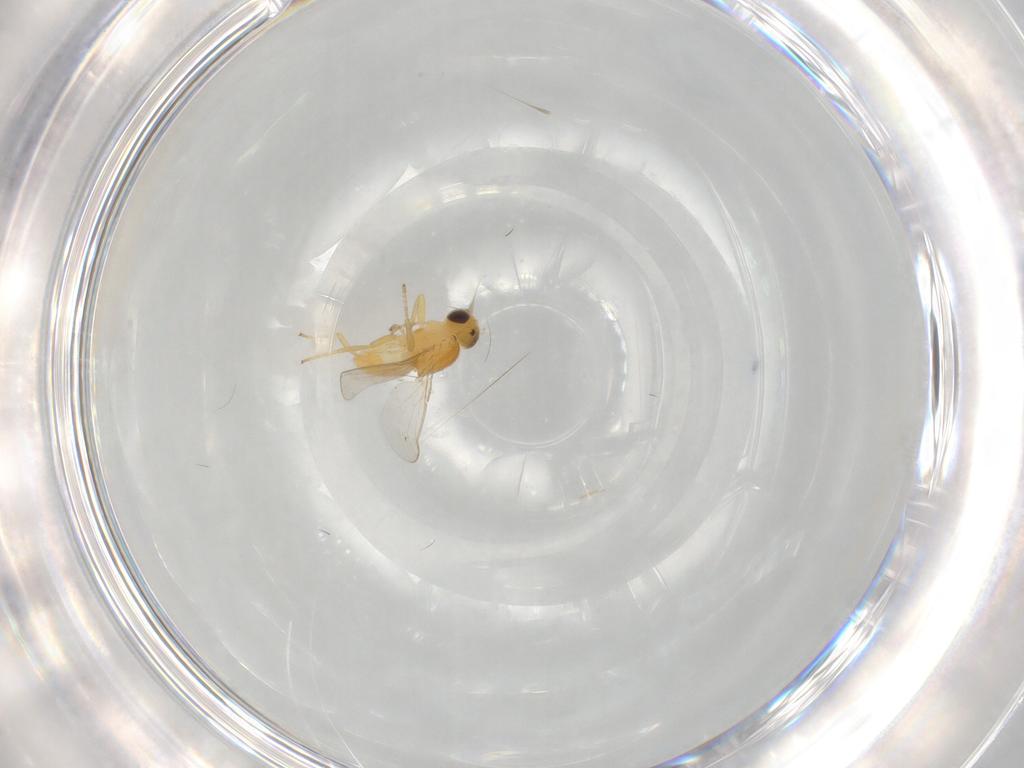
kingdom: Animalia
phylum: Arthropoda
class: Insecta
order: Diptera
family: Chloropidae
